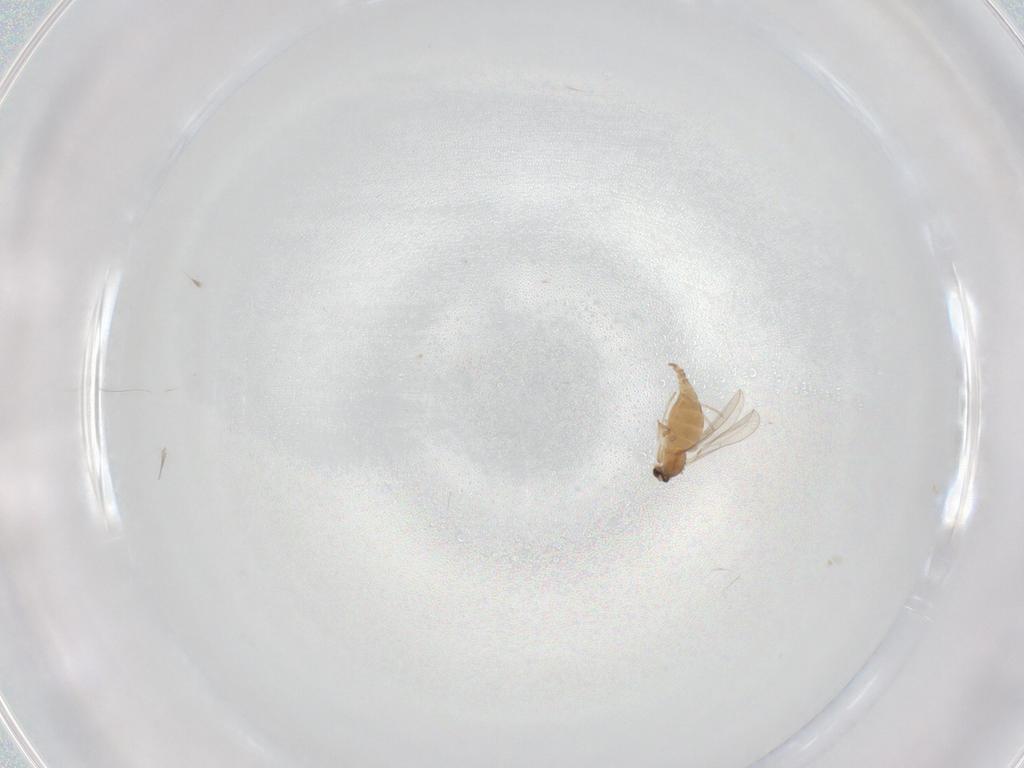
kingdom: Animalia
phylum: Arthropoda
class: Insecta
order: Diptera
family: Cecidomyiidae
